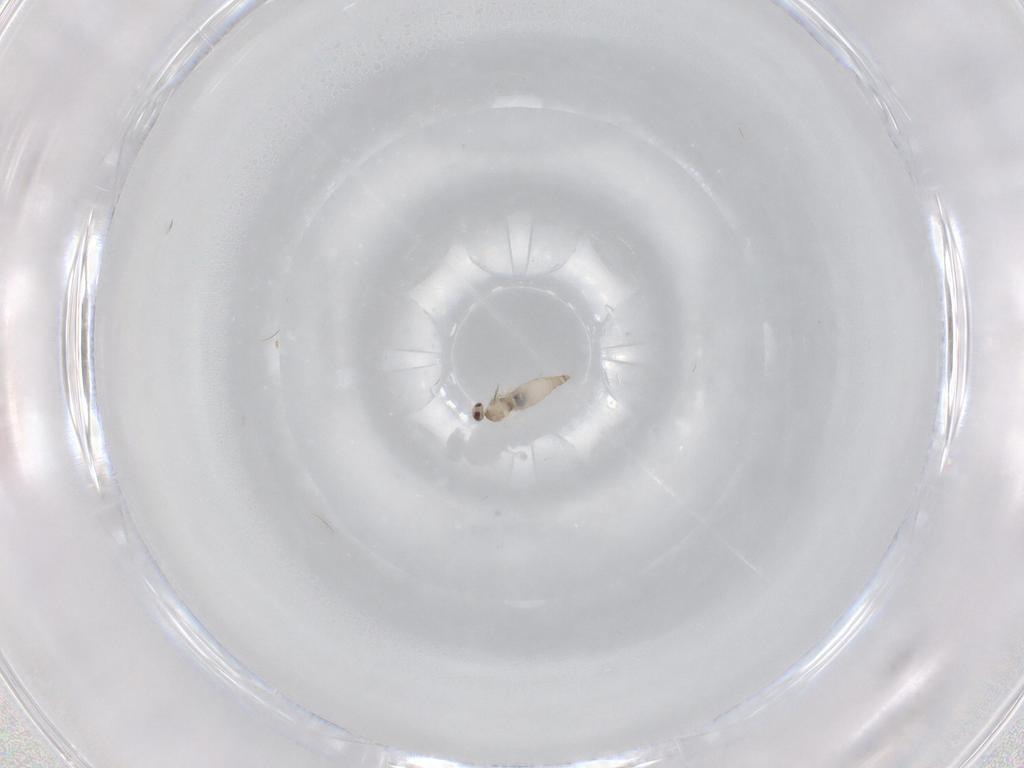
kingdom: Animalia
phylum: Arthropoda
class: Insecta
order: Diptera
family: Cecidomyiidae
